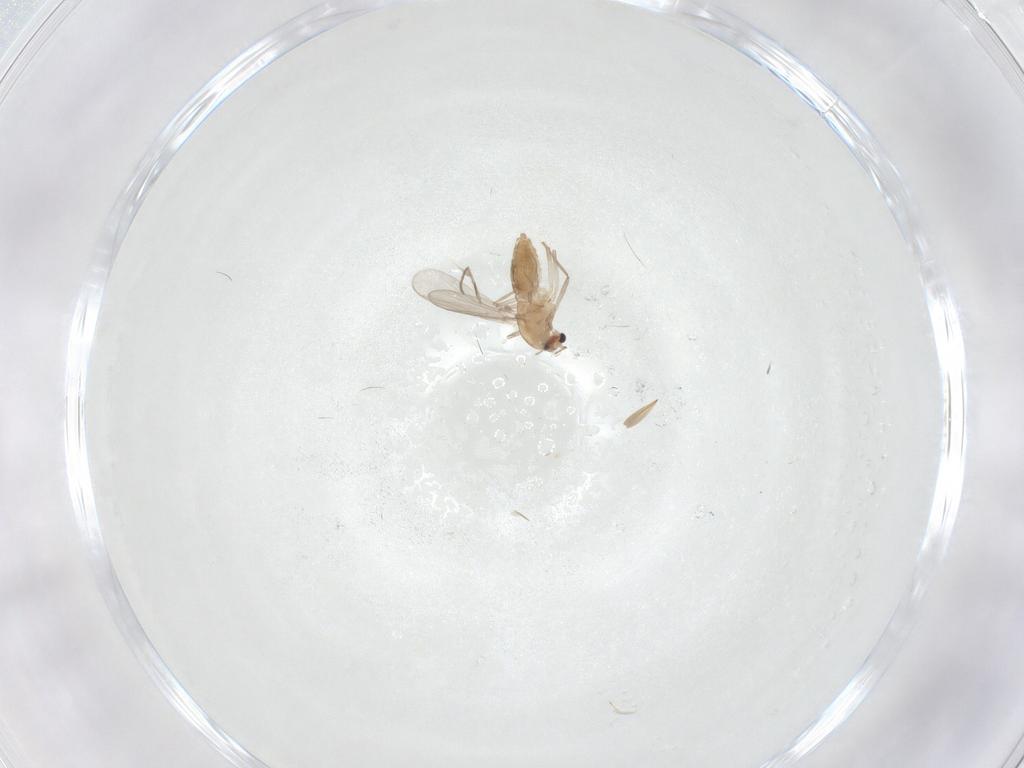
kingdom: Animalia
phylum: Arthropoda
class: Insecta
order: Diptera
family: Chironomidae
